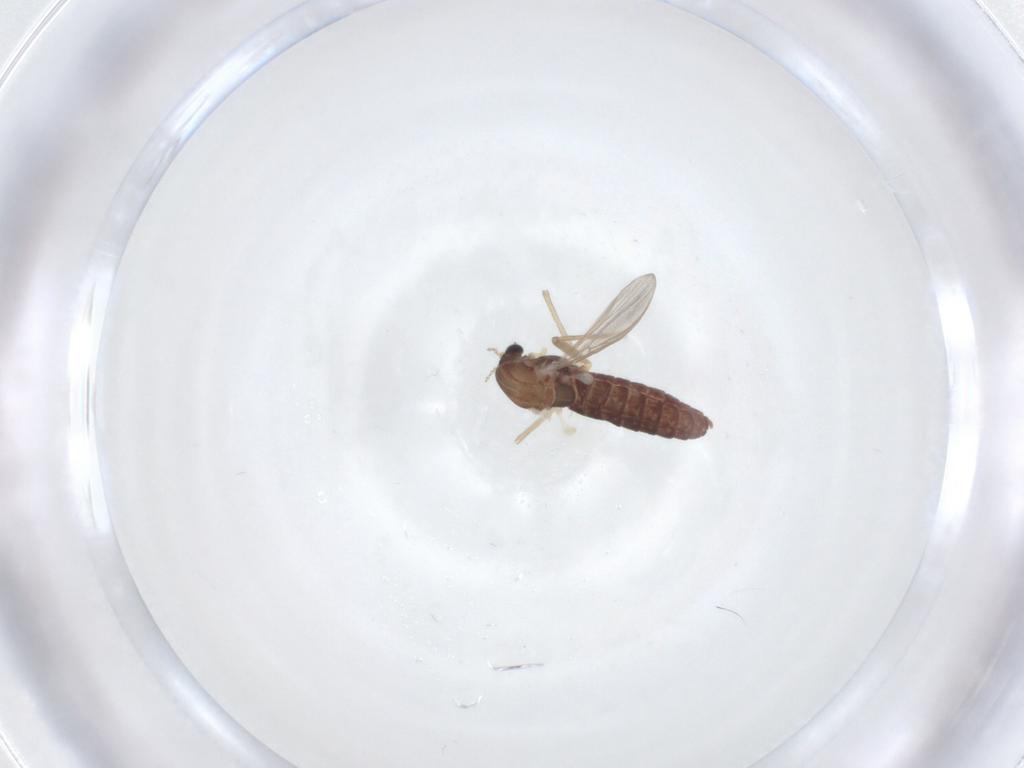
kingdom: Animalia
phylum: Arthropoda
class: Insecta
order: Diptera
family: Chironomidae
